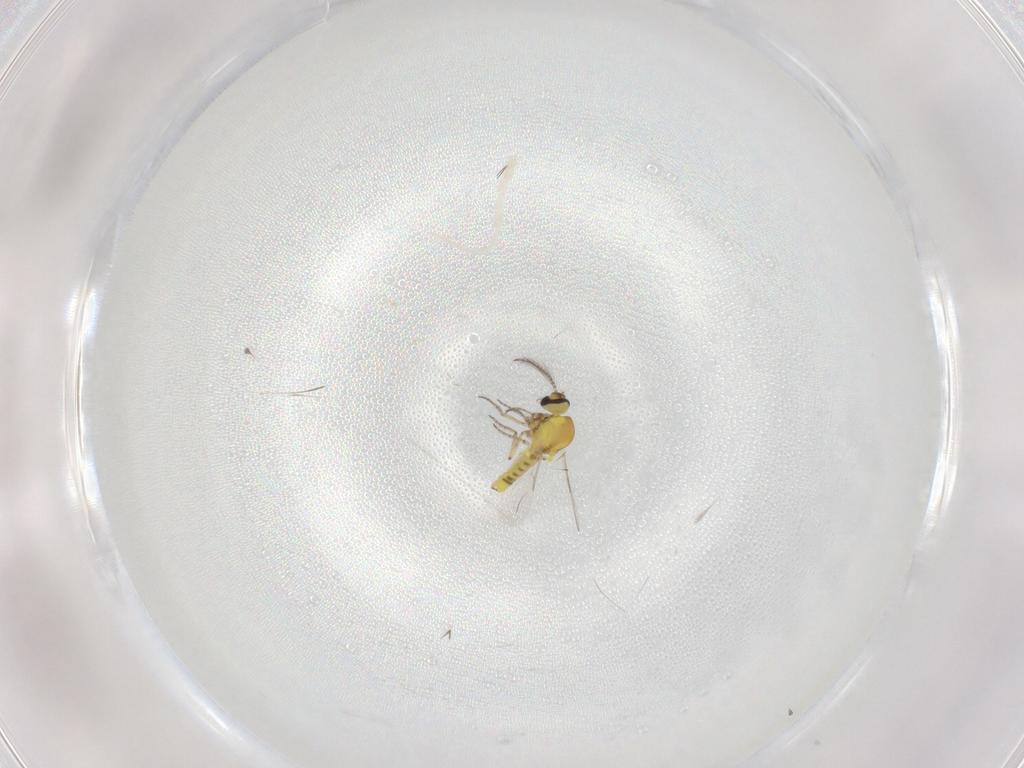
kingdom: Animalia
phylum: Arthropoda
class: Insecta
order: Diptera
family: Ceratopogonidae
